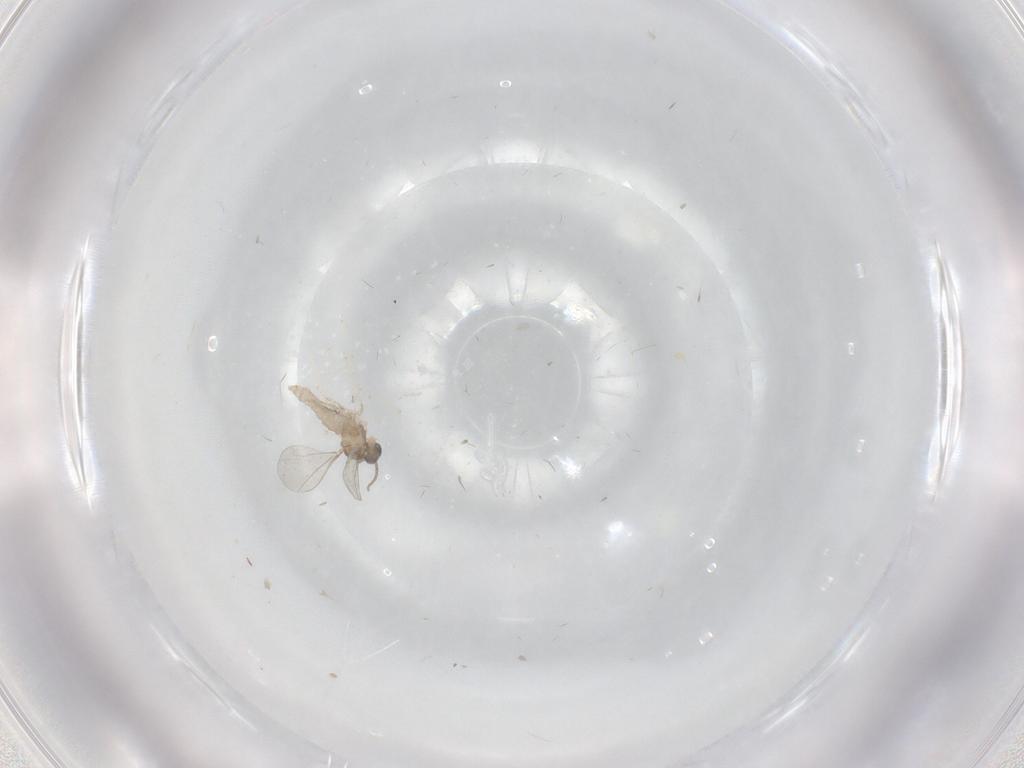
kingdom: Animalia
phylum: Arthropoda
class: Insecta
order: Diptera
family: Cecidomyiidae
